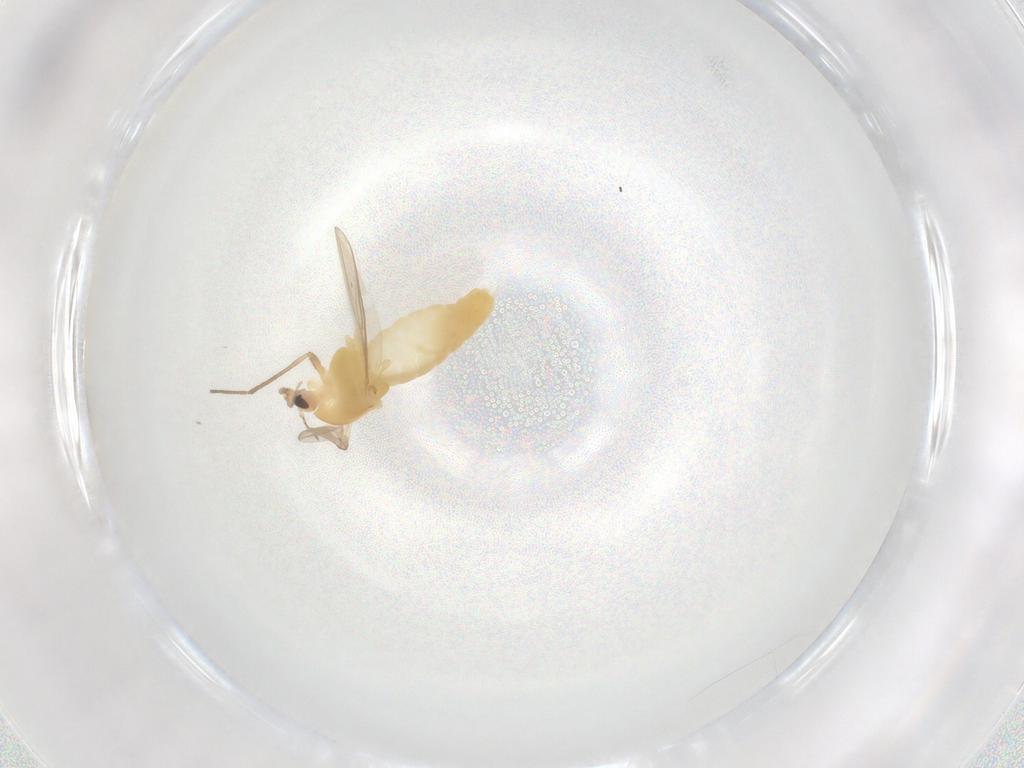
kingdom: Animalia
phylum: Arthropoda
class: Insecta
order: Diptera
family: Chironomidae
